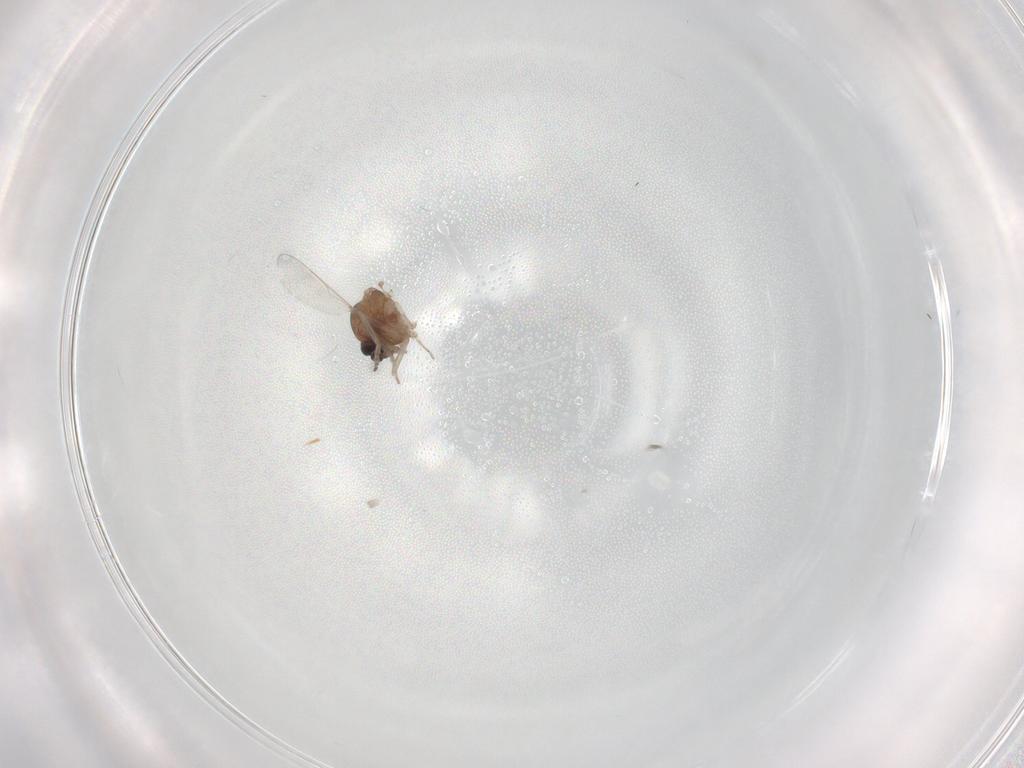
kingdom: Animalia
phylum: Arthropoda
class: Insecta
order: Diptera
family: Ceratopogonidae
